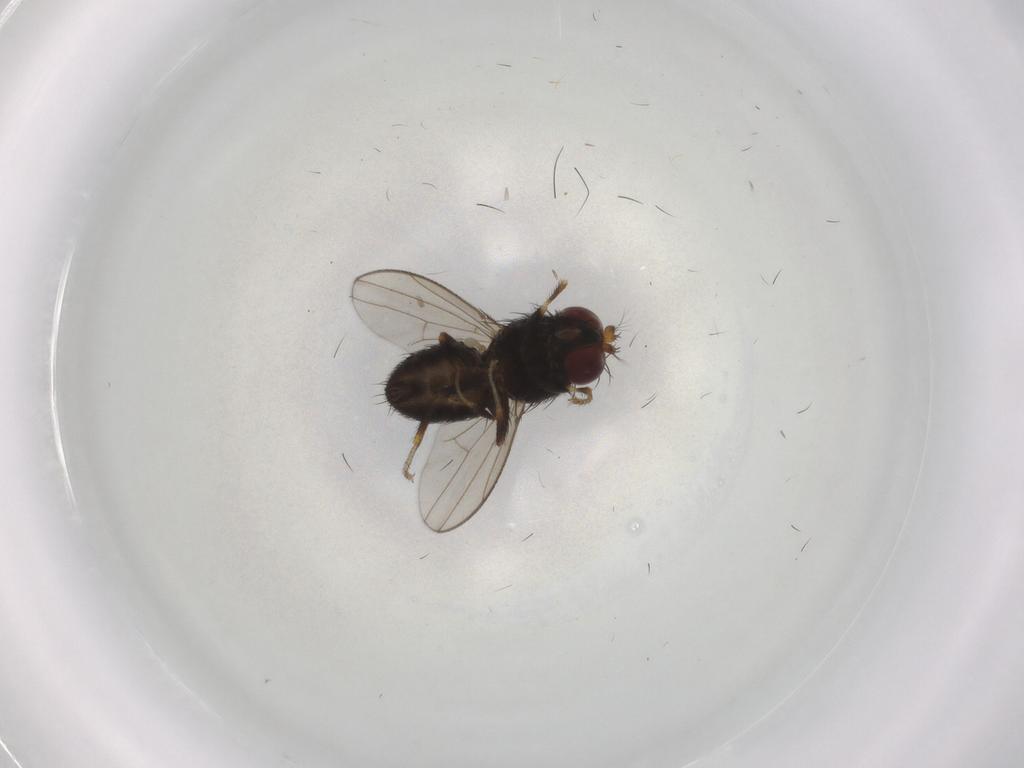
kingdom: Animalia
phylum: Arthropoda
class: Insecta
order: Diptera
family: Ephydridae
